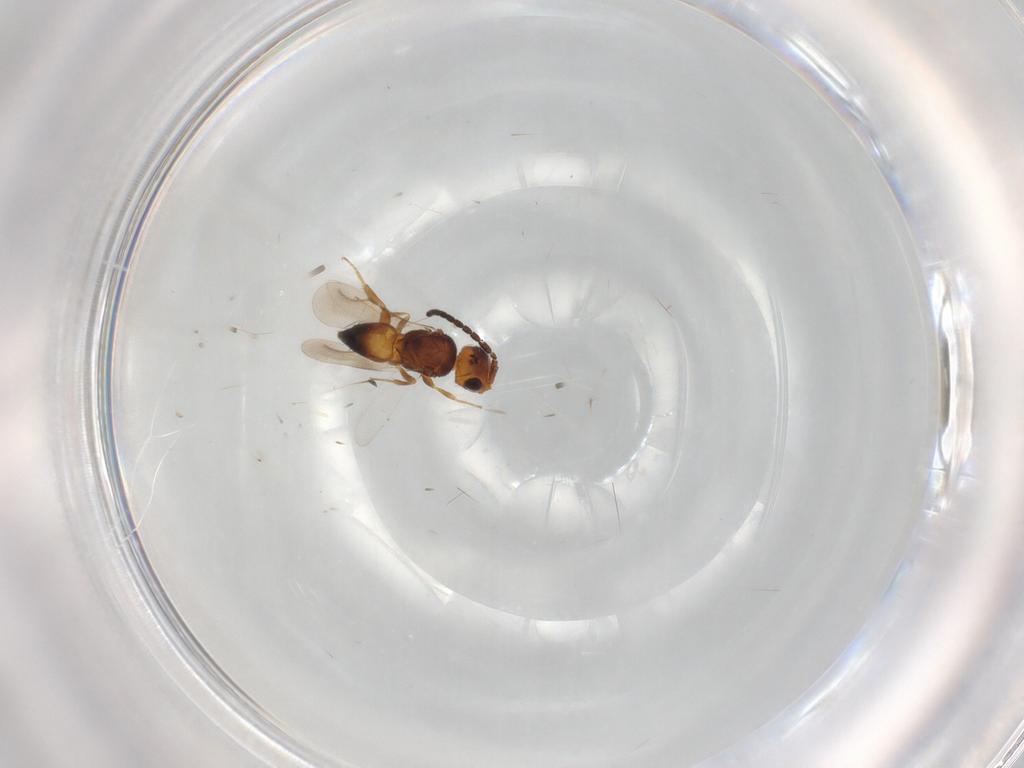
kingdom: Animalia
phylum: Arthropoda
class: Insecta
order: Hymenoptera
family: Ceraphronidae
